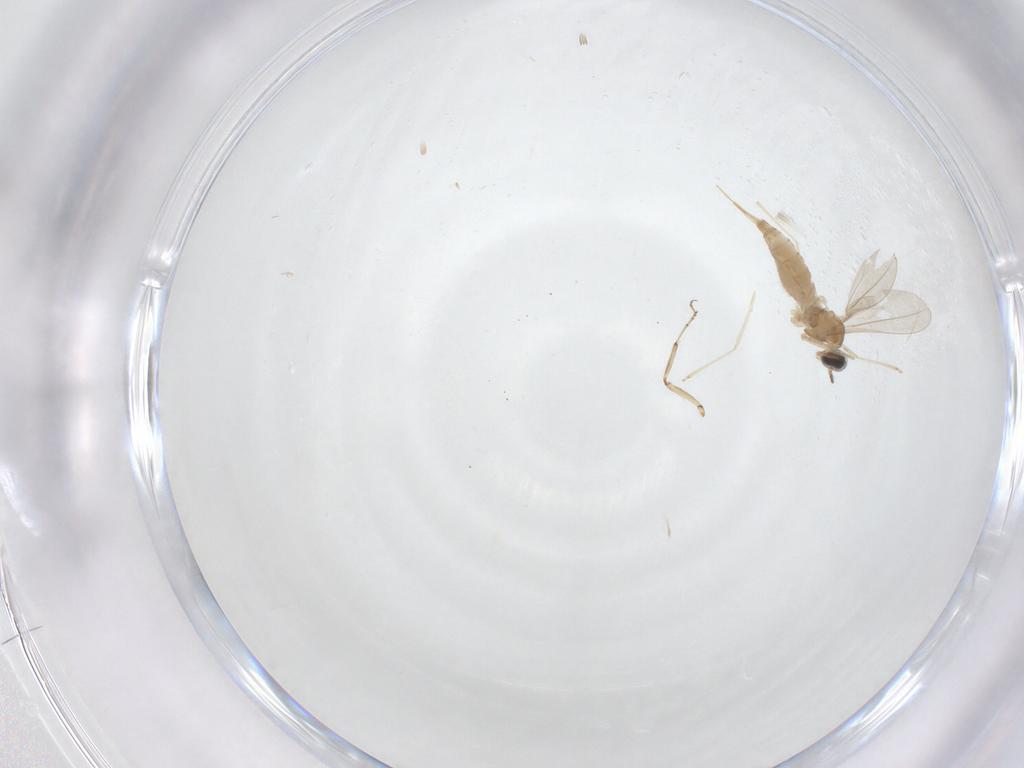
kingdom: Animalia
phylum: Arthropoda
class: Insecta
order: Diptera
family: Cecidomyiidae
